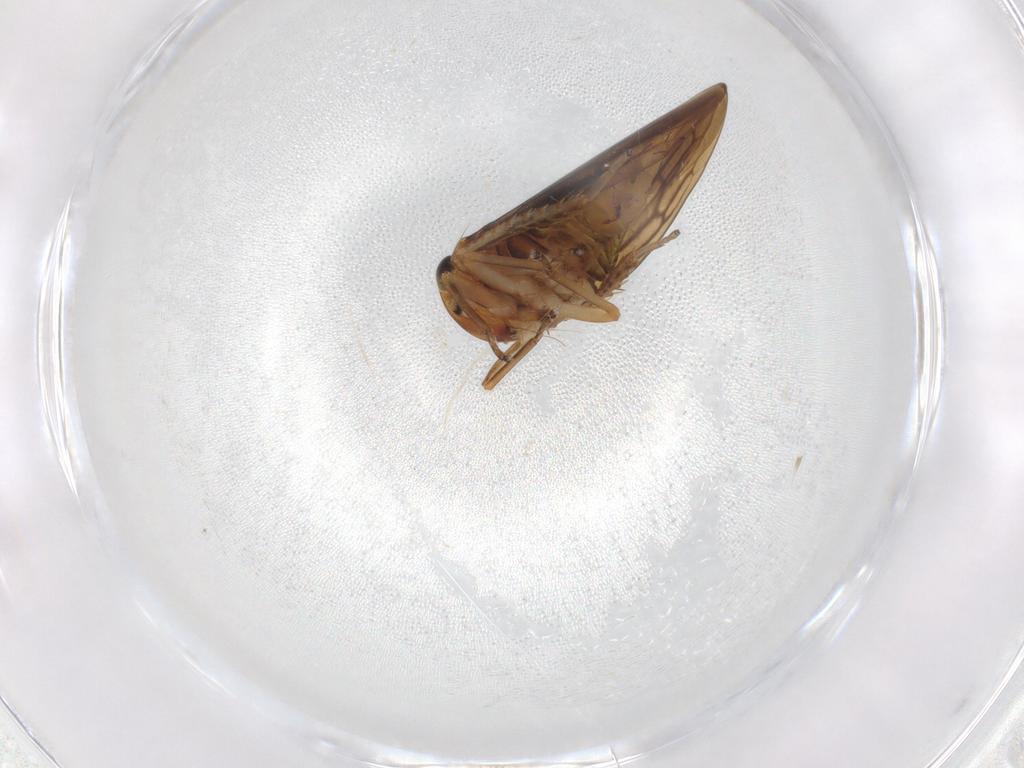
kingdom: Animalia
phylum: Arthropoda
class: Insecta
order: Hemiptera
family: Cicadellidae
